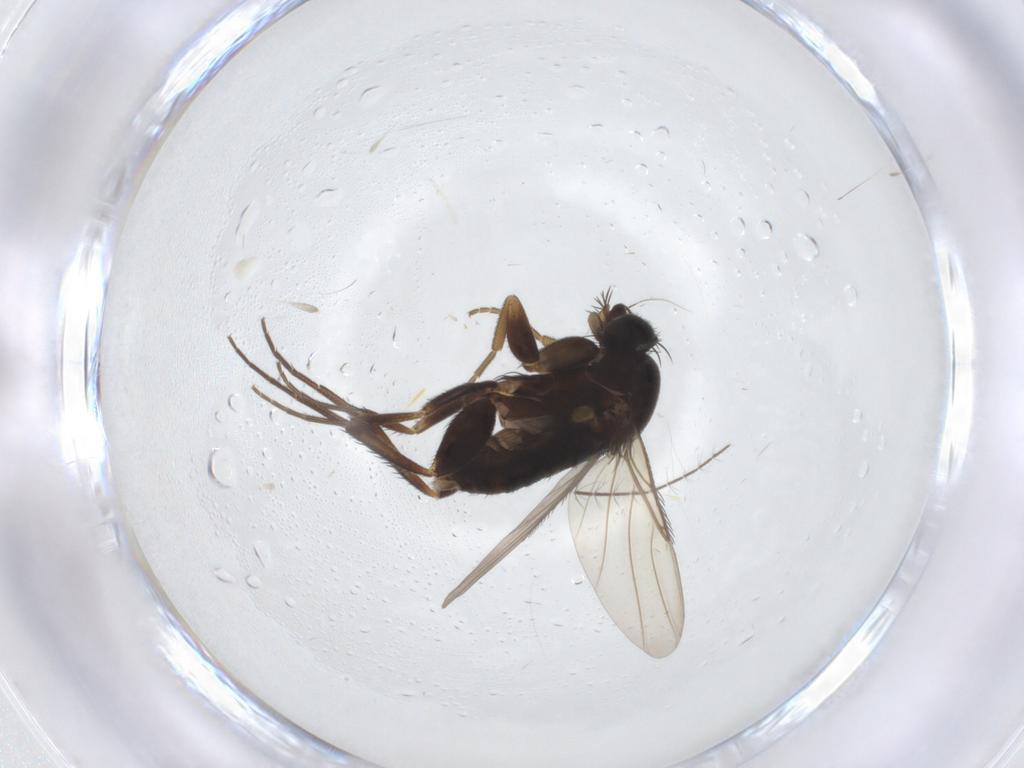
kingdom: Animalia
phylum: Arthropoda
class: Insecta
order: Diptera
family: Phoridae
